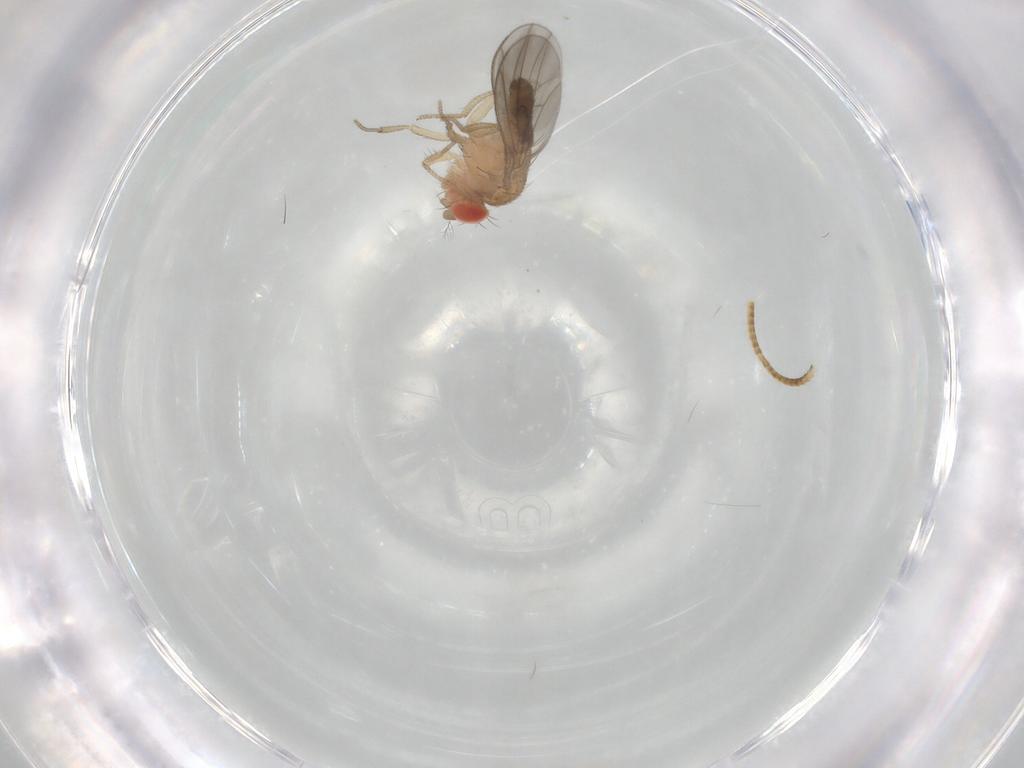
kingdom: Animalia
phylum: Arthropoda
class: Insecta
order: Diptera
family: Drosophilidae
